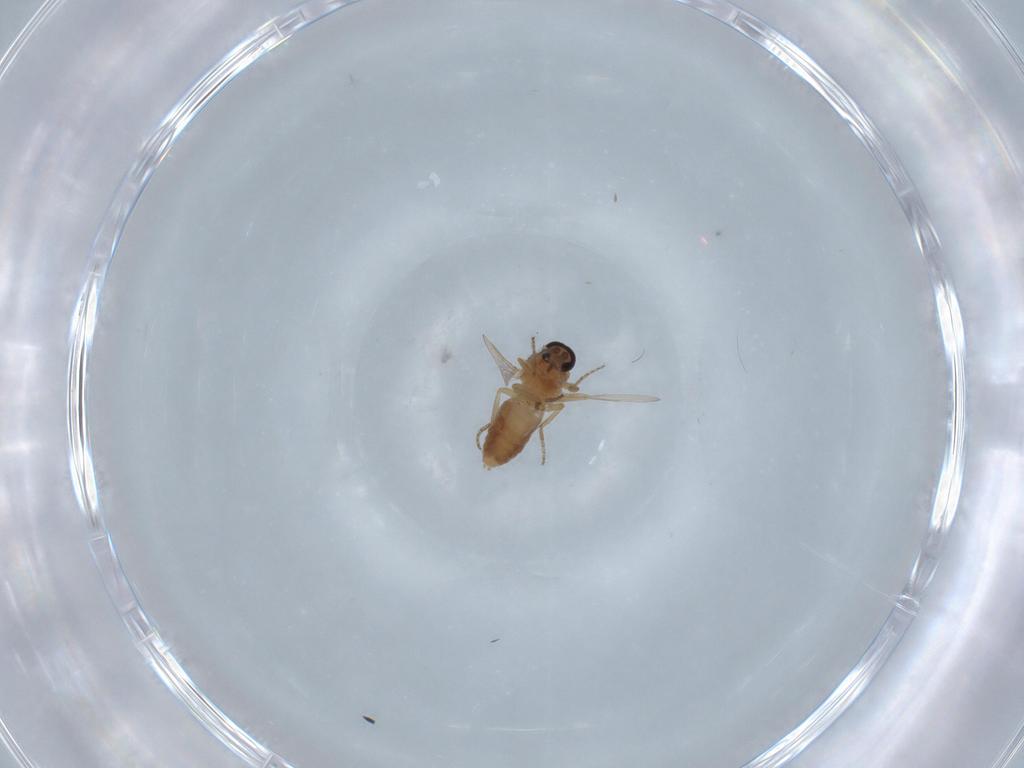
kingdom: Animalia
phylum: Arthropoda
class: Insecta
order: Diptera
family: Ceratopogonidae
